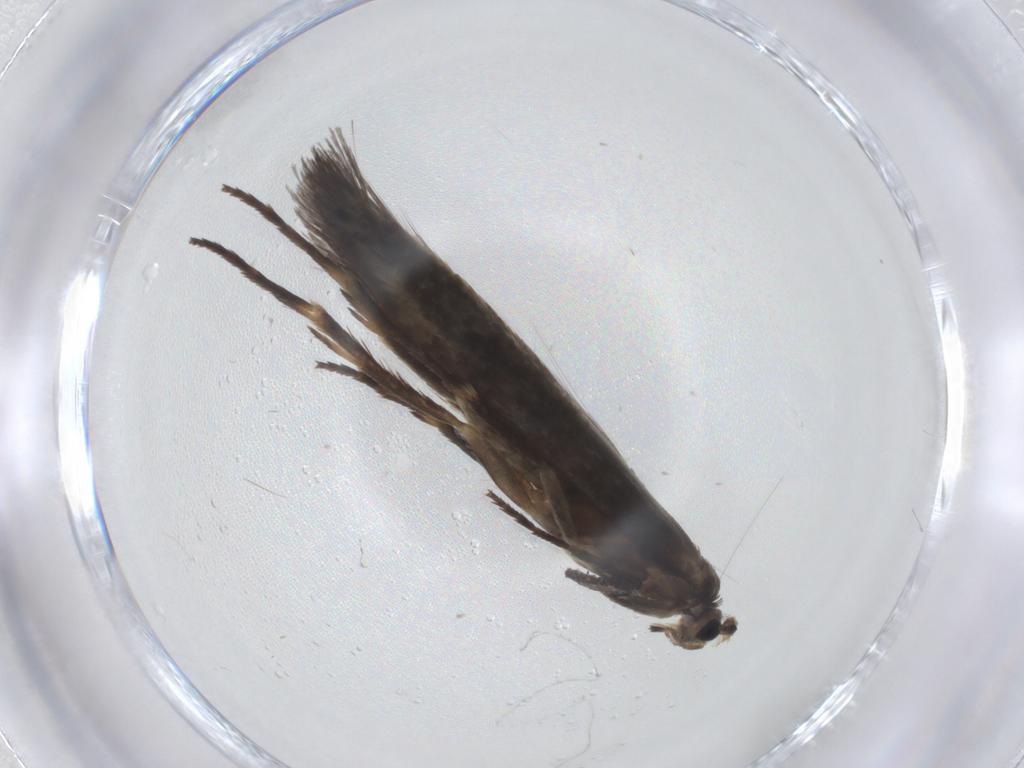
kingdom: Animalia
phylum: Arthropoda
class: Insecta
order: Lepidoptera
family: Nepticulidae
